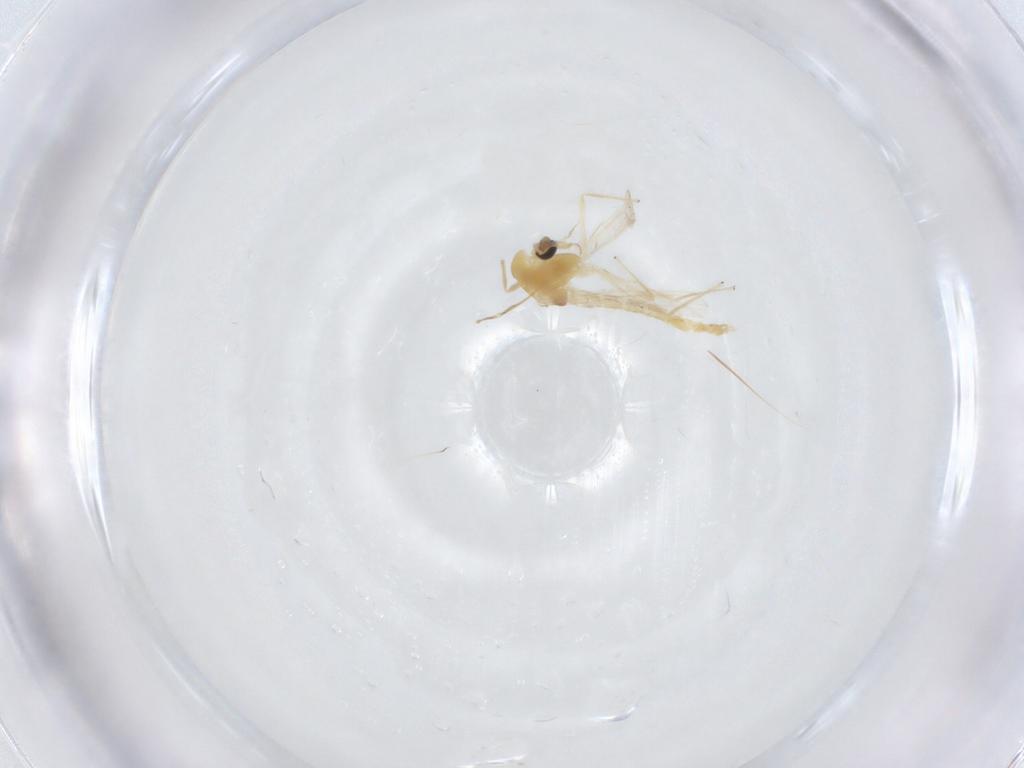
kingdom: Animalia
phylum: Arthropoda
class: Insecta
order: Diptera
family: Chironomidae
